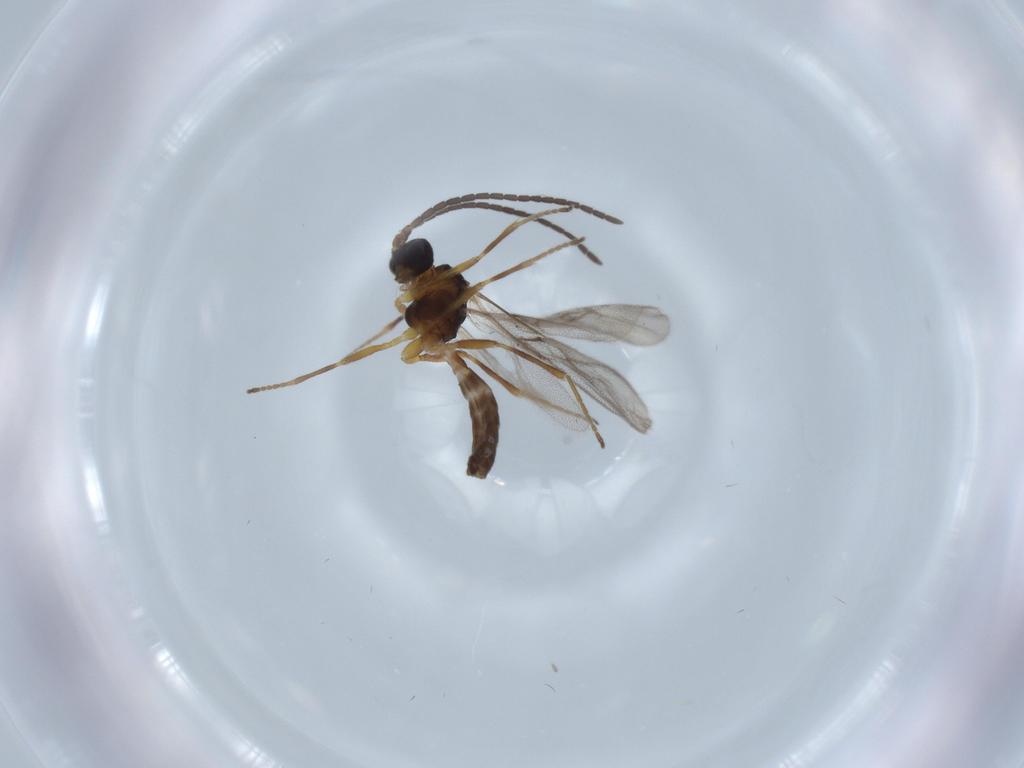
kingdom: Animalia
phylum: Arthropoda
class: Insecta
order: Hymenoptera
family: Braconidae
